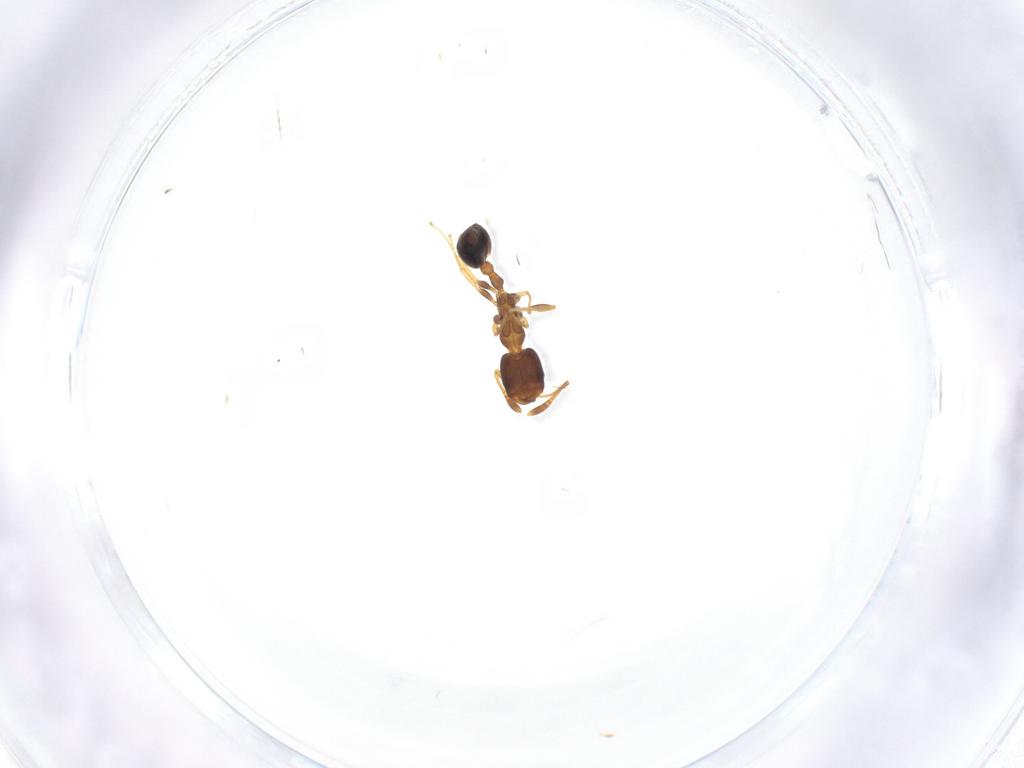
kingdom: Animalia
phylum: Arthropoda
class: Insecta
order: Hymenoptera
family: Formicidae
